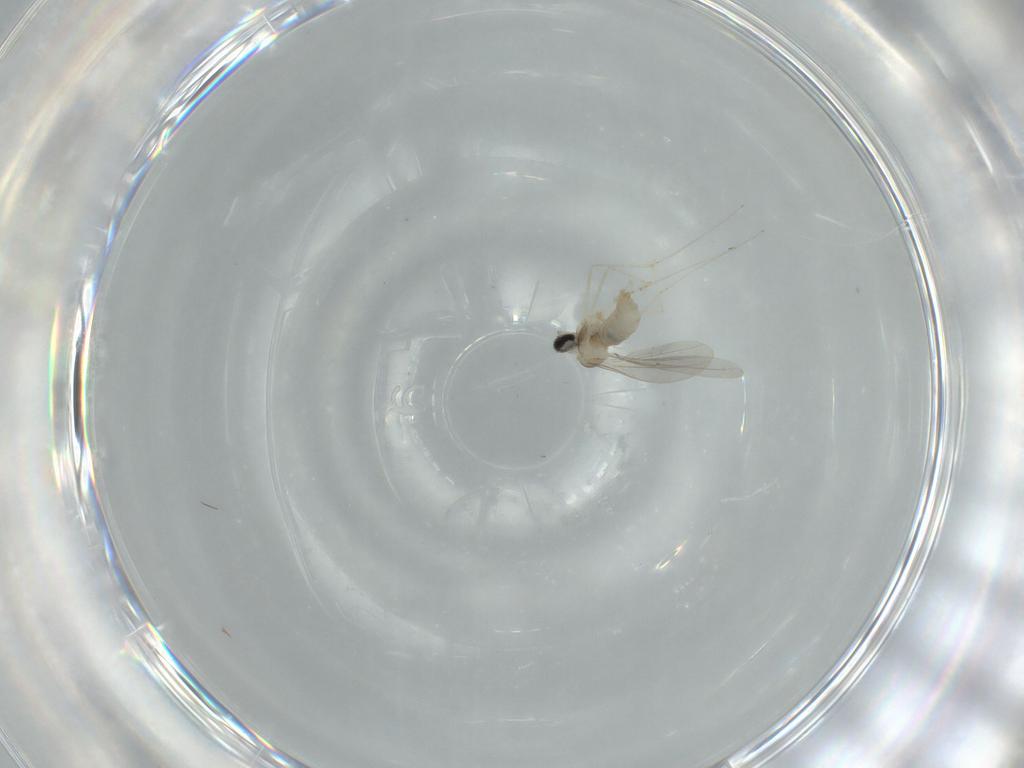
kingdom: Animalia
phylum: Arthropoda
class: Insecta
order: Diptera
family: Cecidomyiidae
